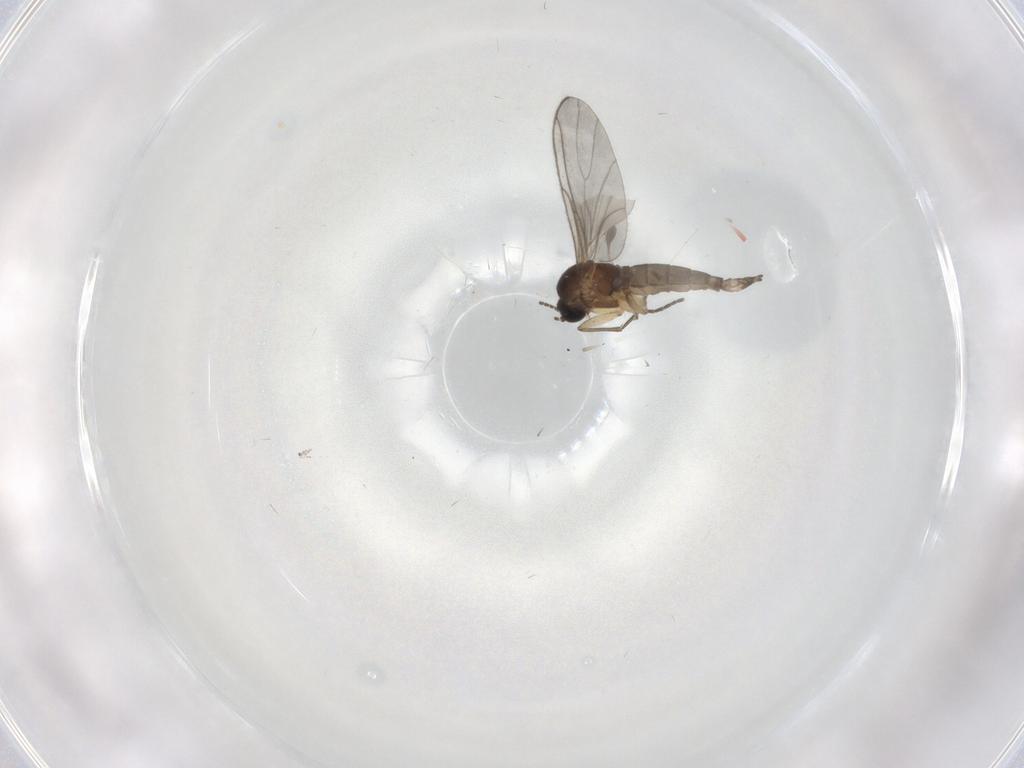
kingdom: Animalia
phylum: Arthropoda
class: Insecta
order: Diptera
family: Sciaridae
